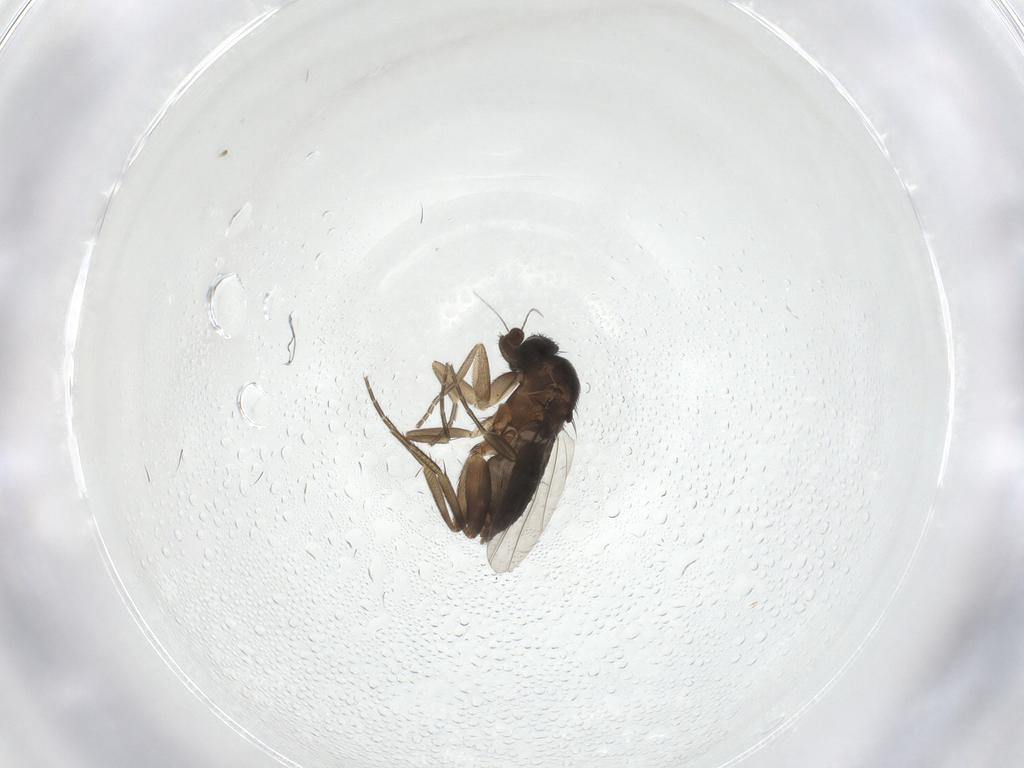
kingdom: Animalia
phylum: Arthropoda
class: Insecta
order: Diptera
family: Phoridae
